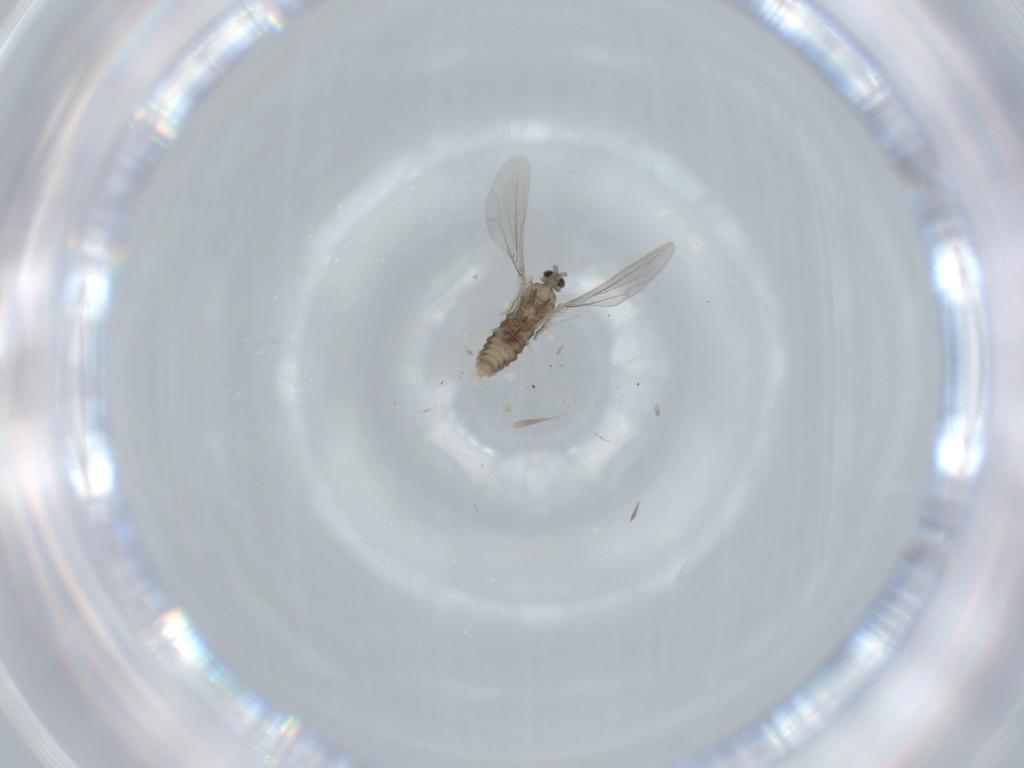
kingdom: Animalia
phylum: Arthropoda
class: Insecta
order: Diptera
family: Cecidomyiidae
